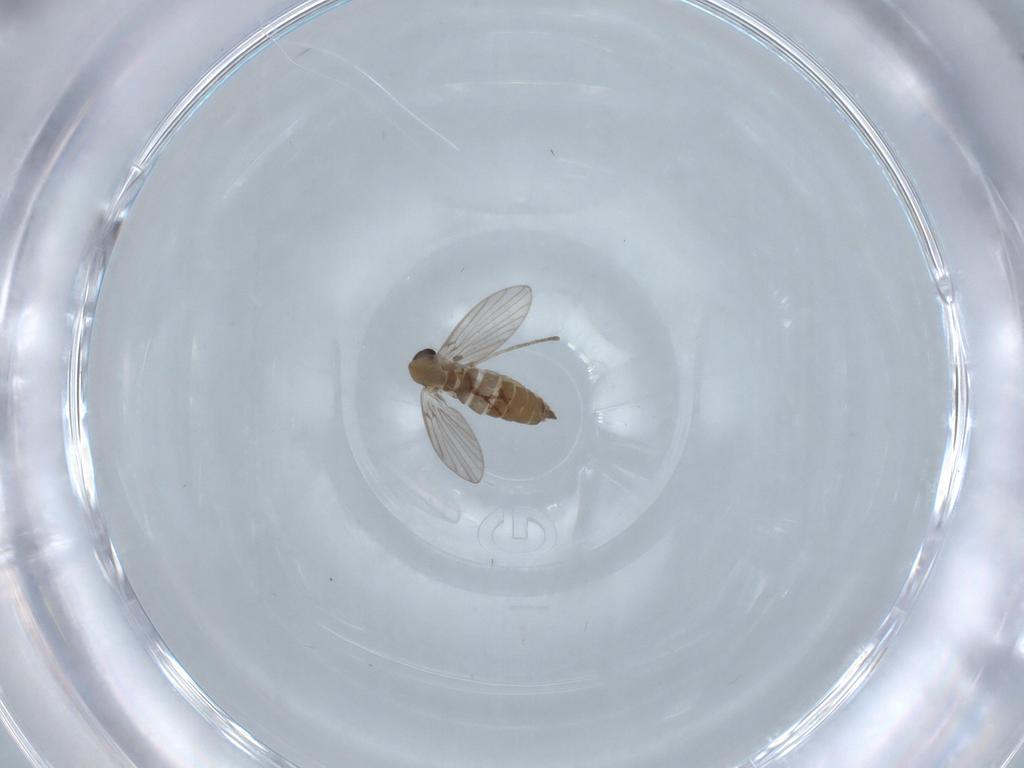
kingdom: Animalia
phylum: Arthropoda
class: Insecta
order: Diptera
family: Psychodidae
